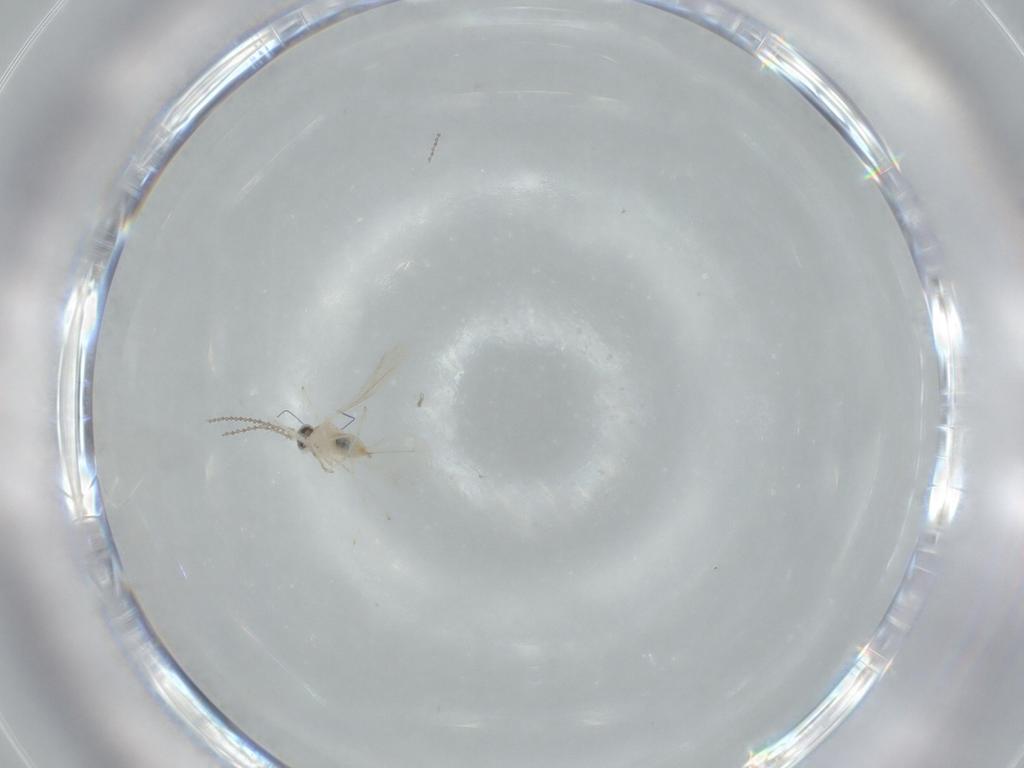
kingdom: Animalia
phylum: Arthropoda
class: Insecta
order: Diptera
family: Cecidomyiidae
